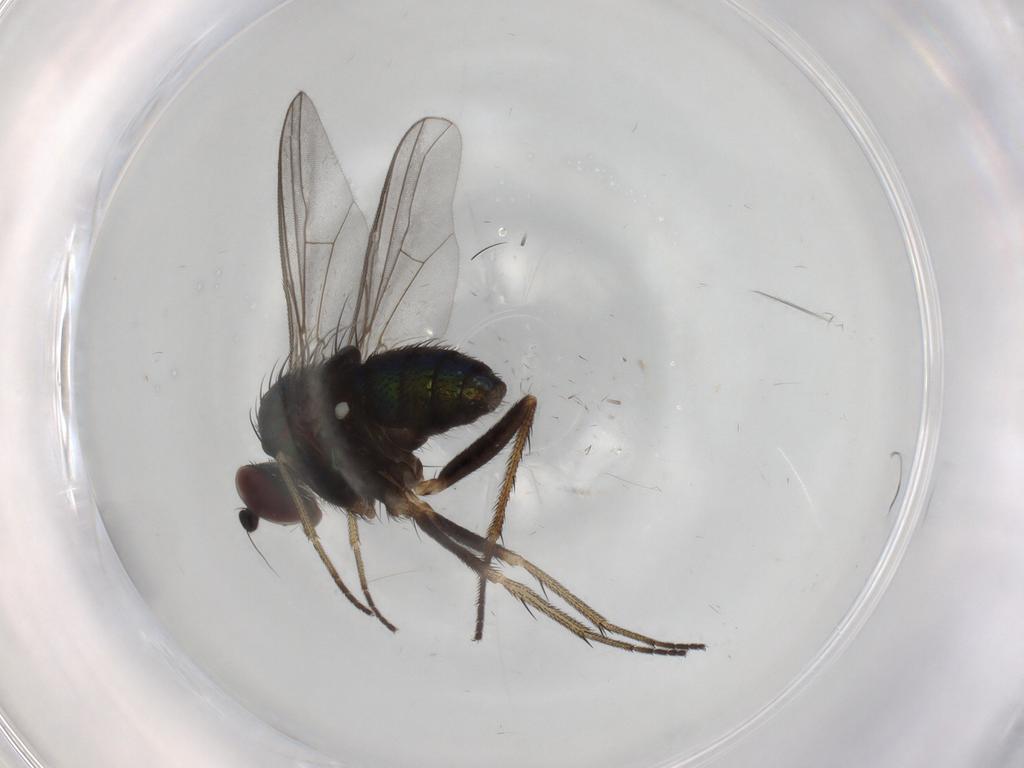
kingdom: Animalia
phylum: Arthropoda
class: Insecta
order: Diptera
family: Dolichopodidae
